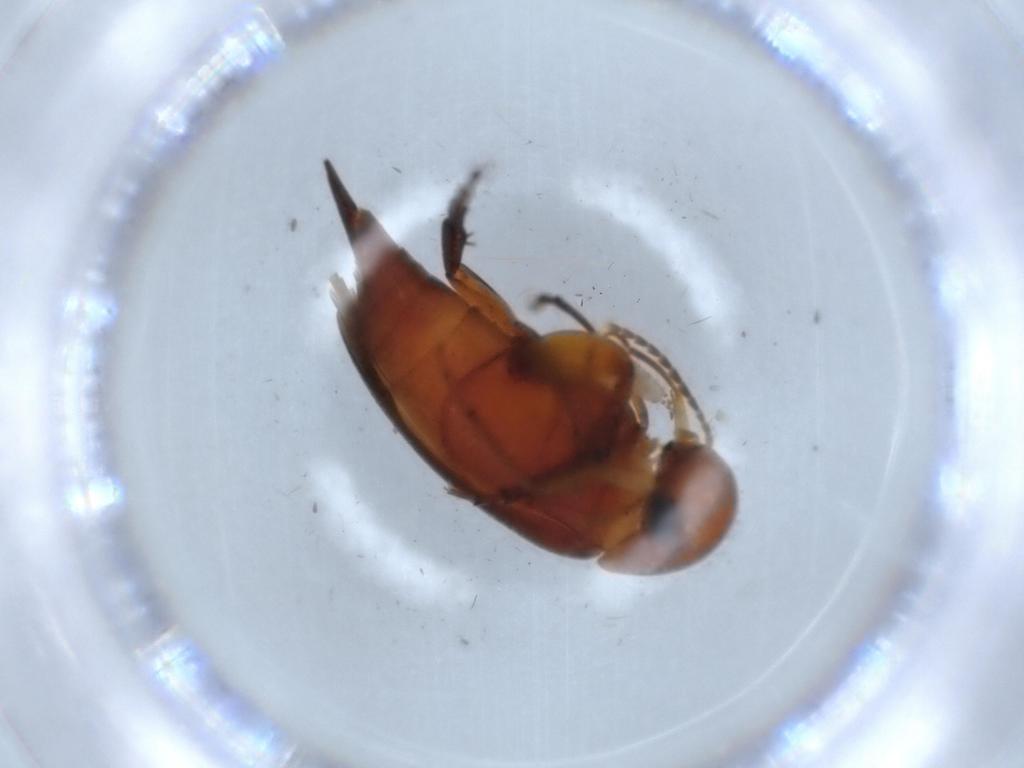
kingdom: Animalia
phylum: Arthropoda
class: Insecta
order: Coleoptera
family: Mordellidae
